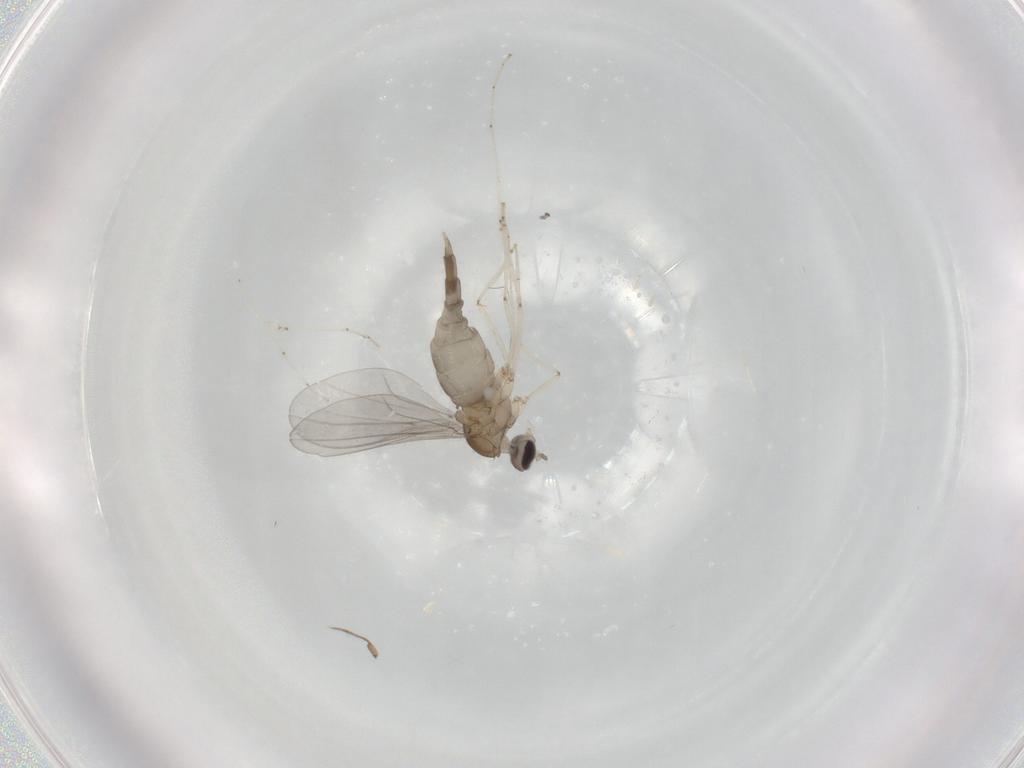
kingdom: Animalia
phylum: Arthropoda
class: Insecta
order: Diptera
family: Cecidomyiidae
